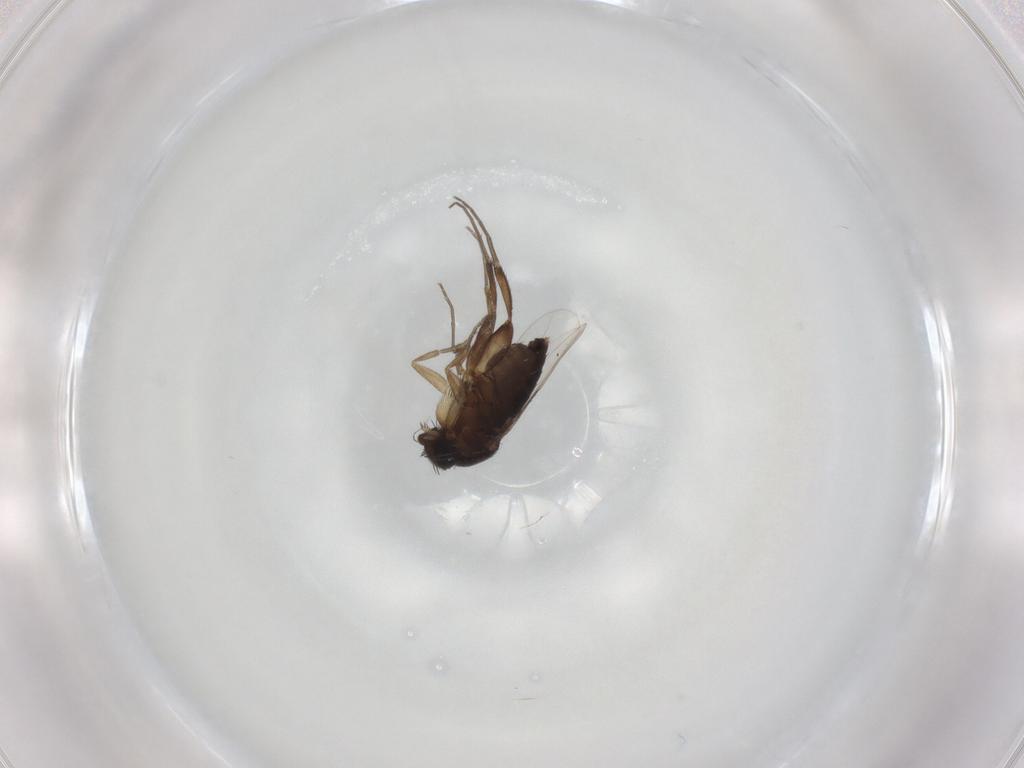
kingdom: Animalia
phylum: Arthropoda
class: Insecta
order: Diptera
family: Phoridae
